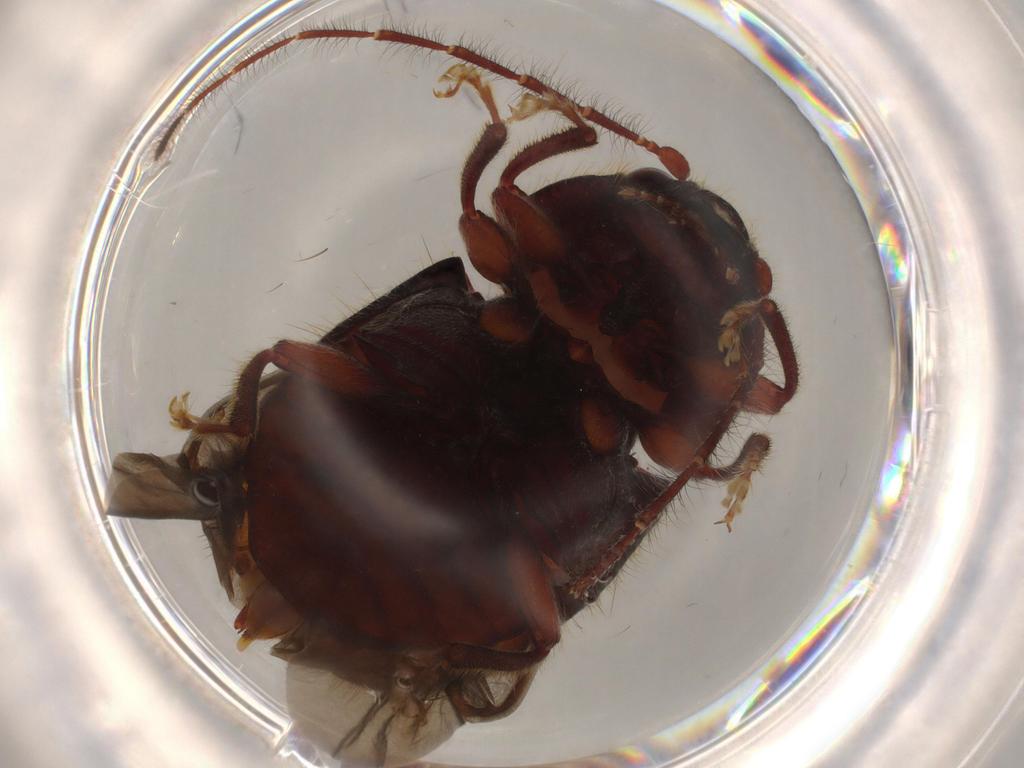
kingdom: Animalia
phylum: Arthropoda
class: Insecta
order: Coleoptera
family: Artematopodidae
